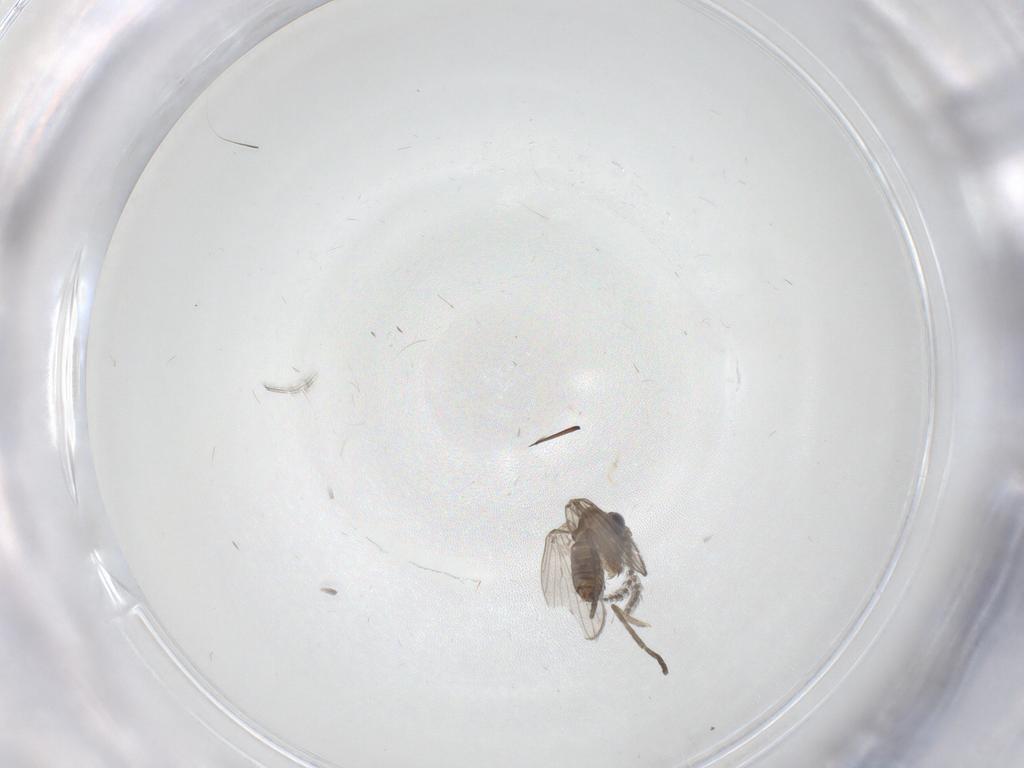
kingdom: Animalia
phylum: Arthropoda
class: Insecta
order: Diptera
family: Psychodidae
